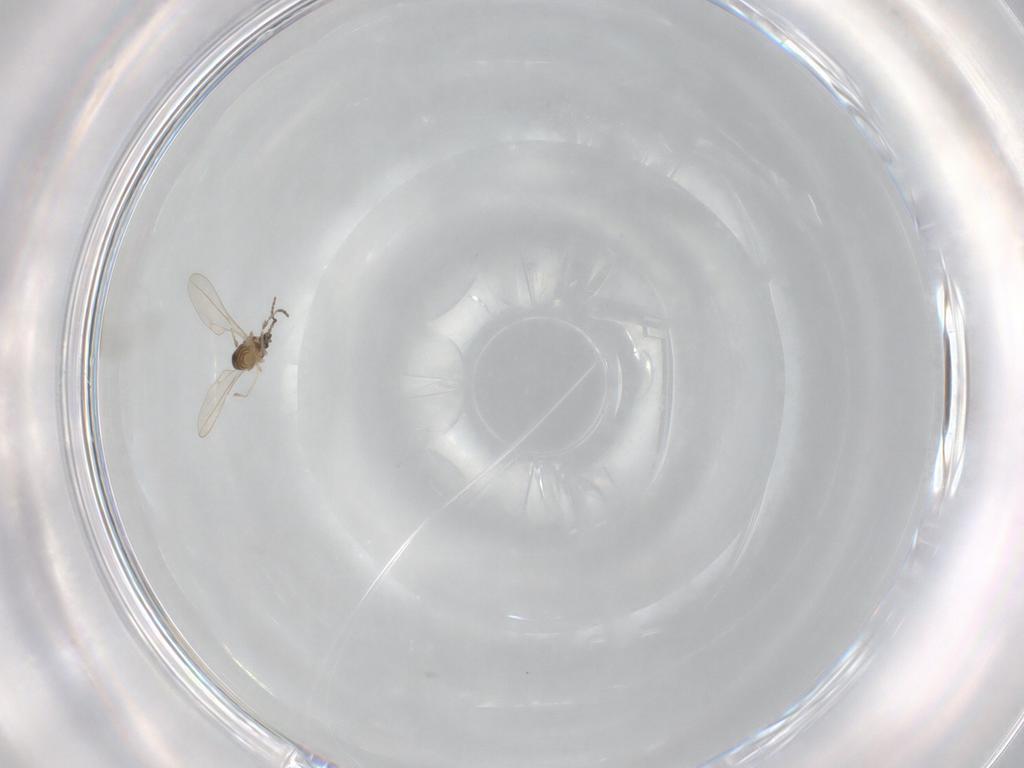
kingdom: Animalia
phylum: Arthropoda
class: Insecta
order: Diptera
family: Cecidomyiidae
